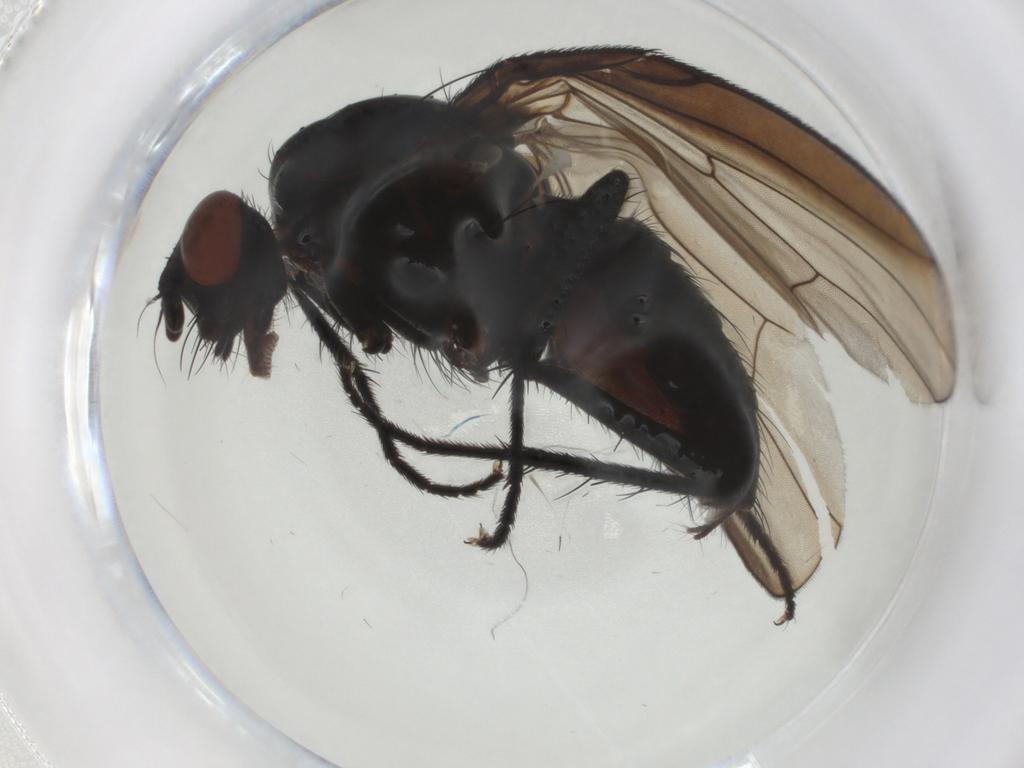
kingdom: Animalia
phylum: Arthropoda
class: Insecta
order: Diptera
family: Anthomyiidae
